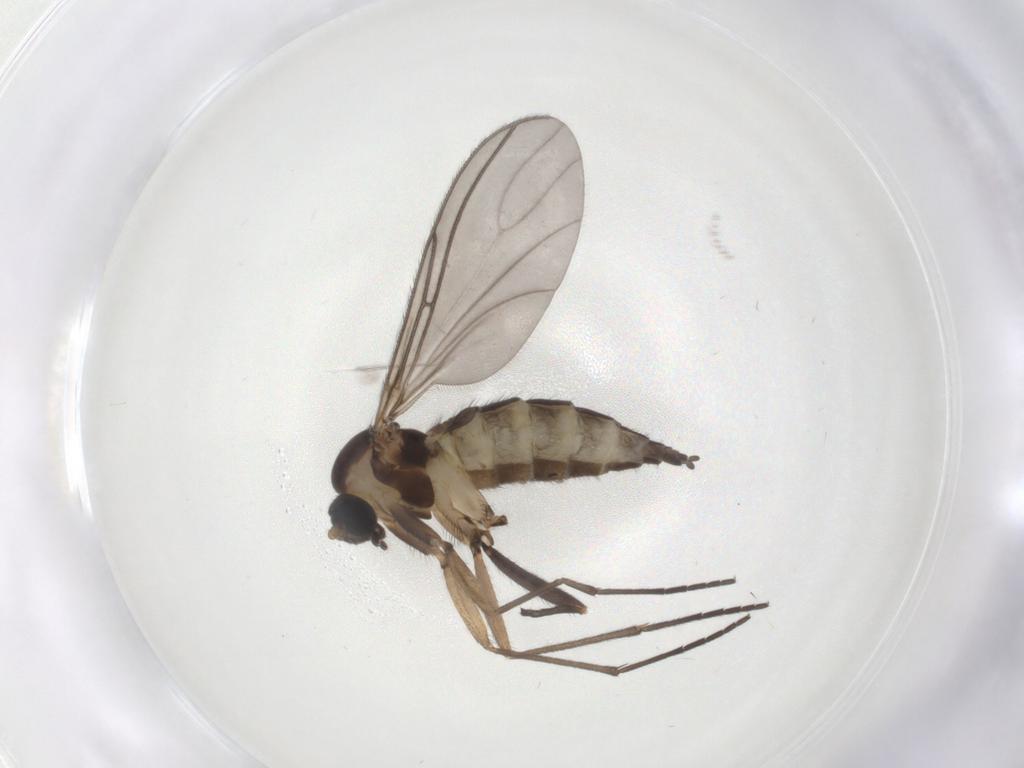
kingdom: Animalia
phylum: Arthropoda
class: Insecta
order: Diptera
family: Sciaridae
